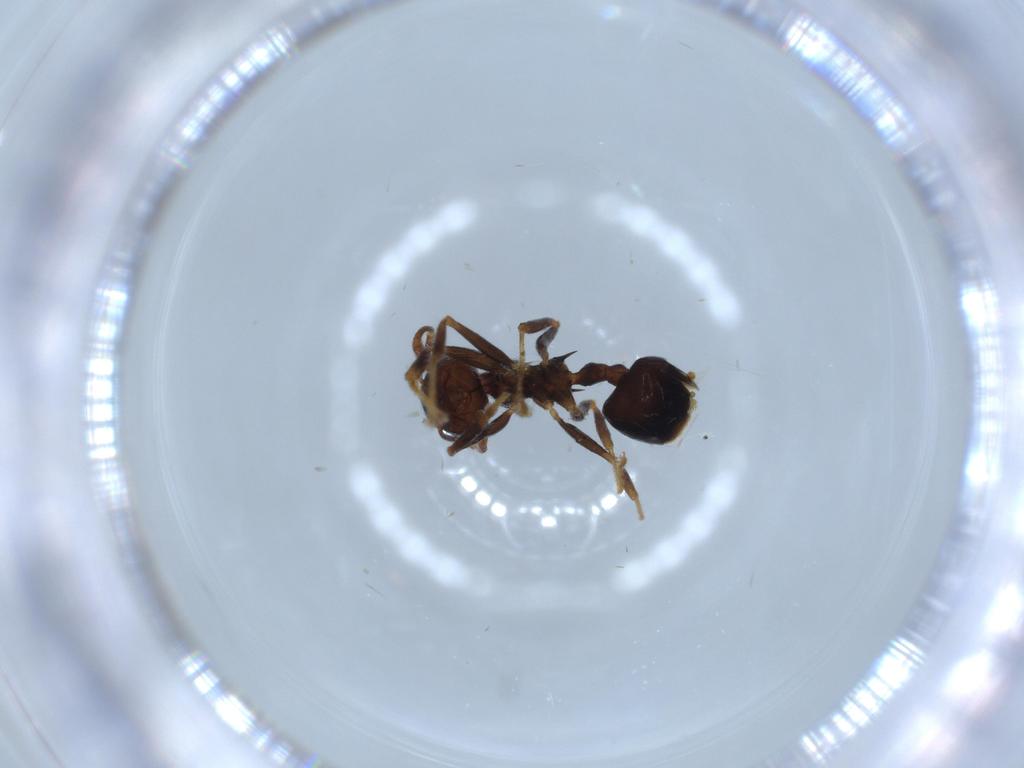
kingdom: Animalia
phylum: Arthropoda
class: Insecta
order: Hymenoptera
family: Formicidae
